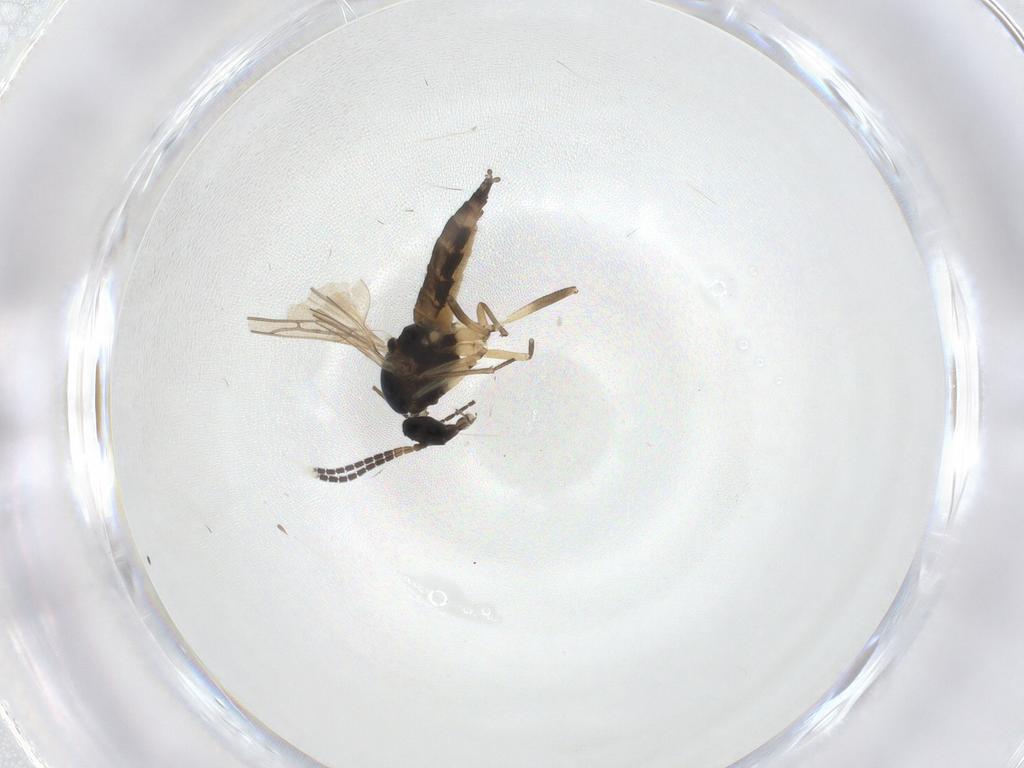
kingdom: Animalia
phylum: Arthropoda
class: Insecta
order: Diptera
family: Sciaridae
